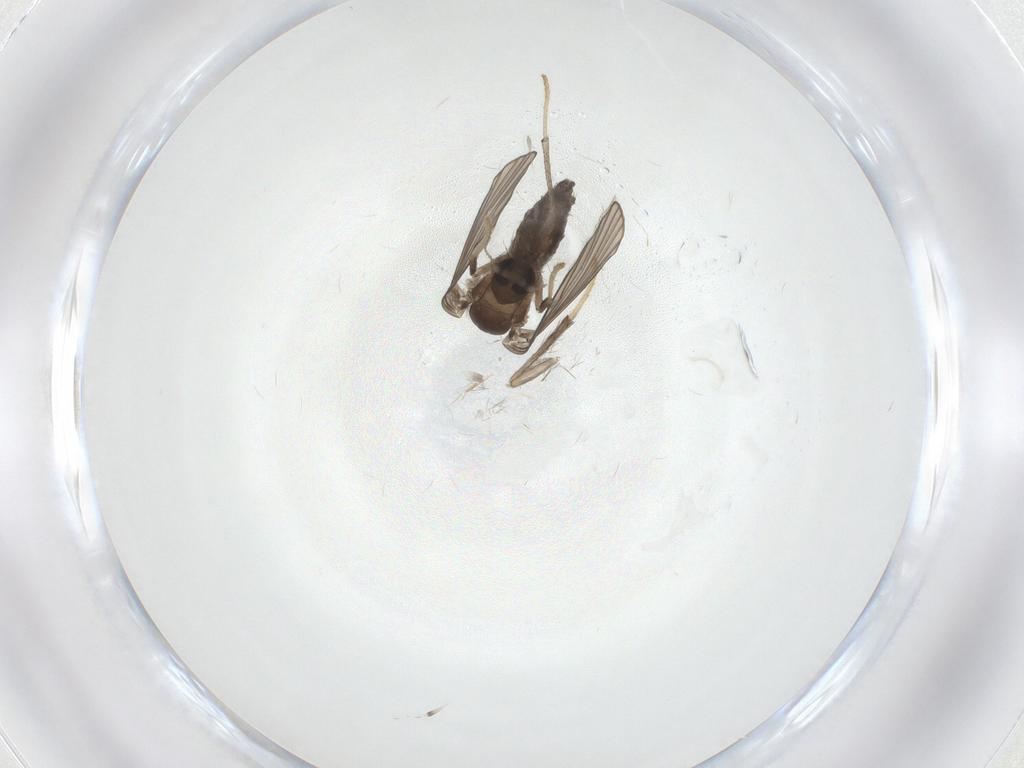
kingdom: Animalia
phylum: Arthropoda
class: Insecta
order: Diptera
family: Psychodidae
